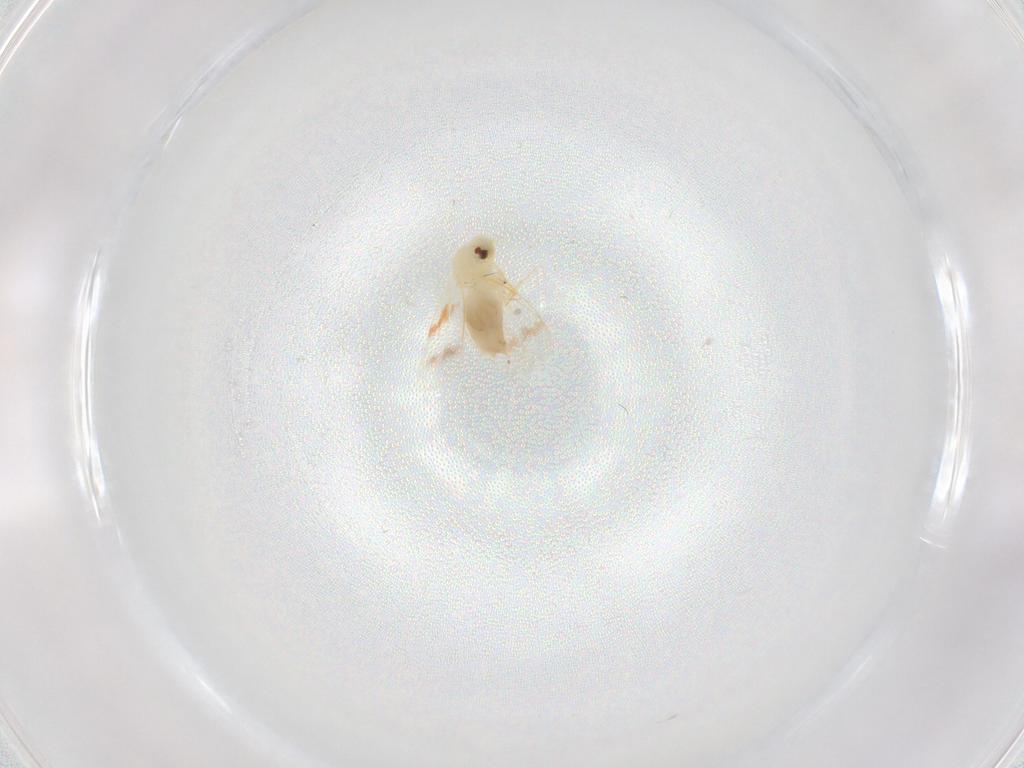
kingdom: Animalia
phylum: Arthropoda
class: Insecta
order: Hemiptera
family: Aleyrodidae
